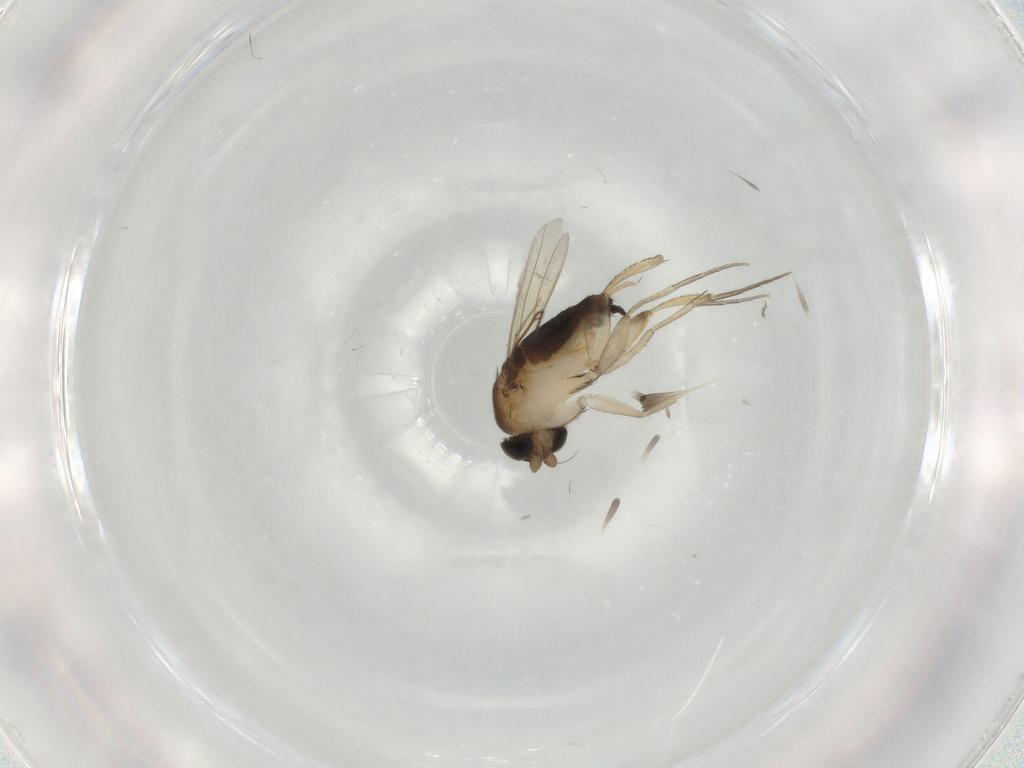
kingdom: Animalia
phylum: Arthropoda
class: Insecta
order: Diptera
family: Phoridae
